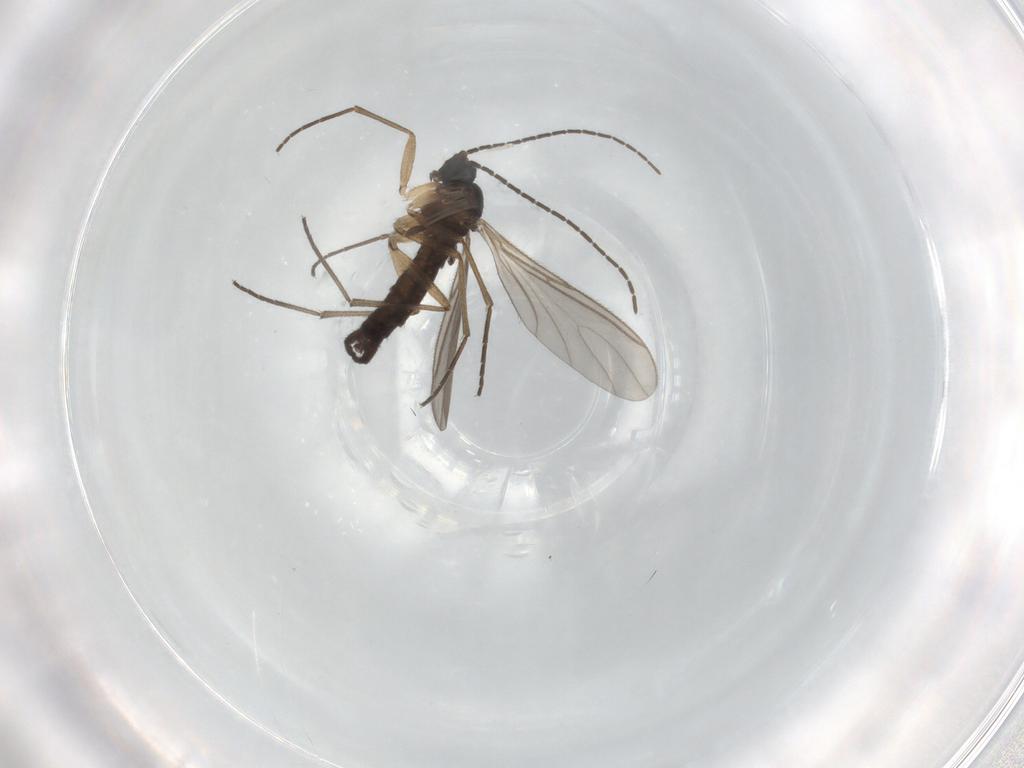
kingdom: Animalia
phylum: Arthropoda
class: Insecta
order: Diptera
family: Sciaridae
